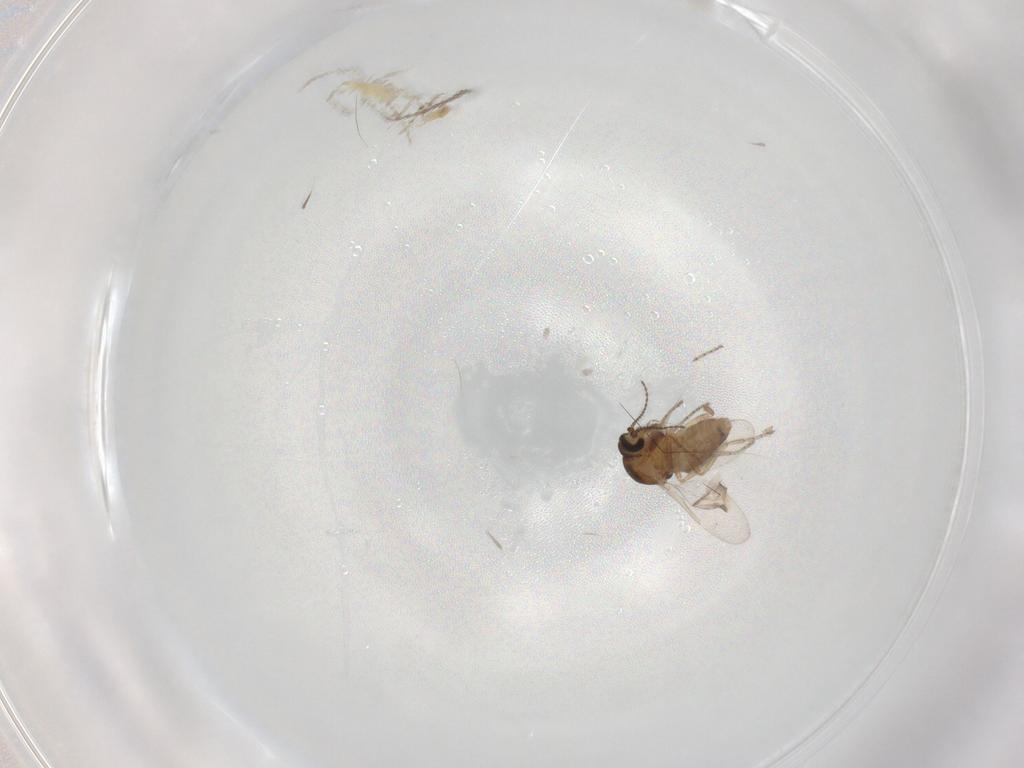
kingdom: Animalia
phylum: Arthropoda
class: Insecta
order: Diptera
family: Ceratopogonidae
